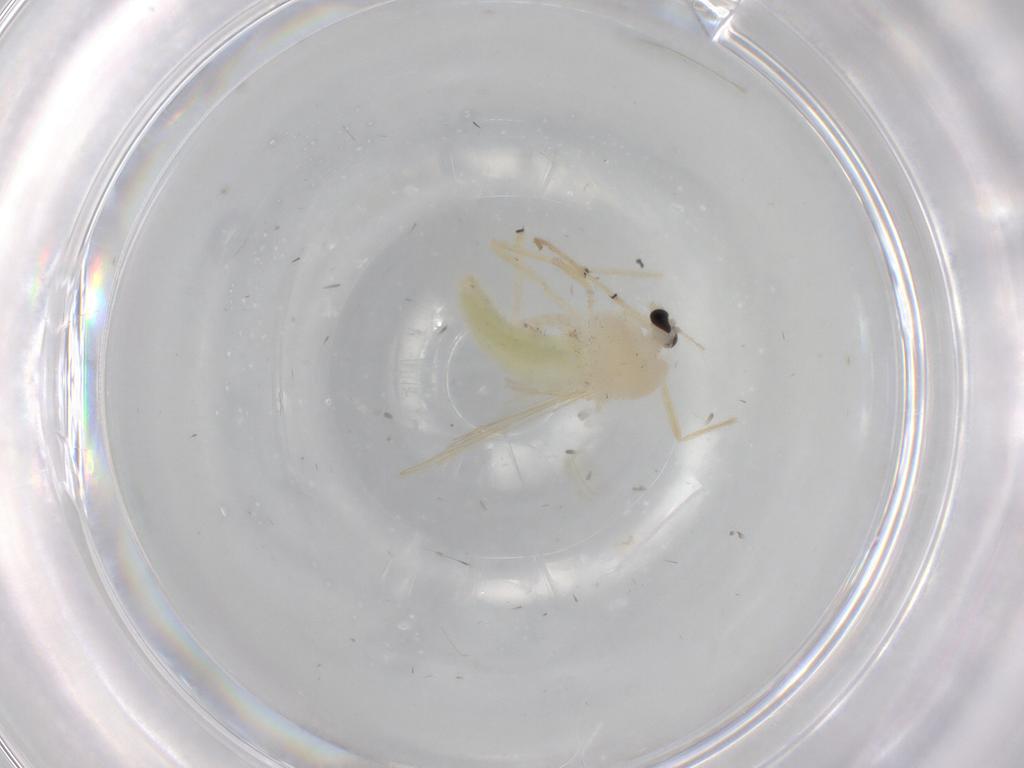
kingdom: Animalia
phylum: Arthropoda
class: Insecta
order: Diptera
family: Chironomidae
